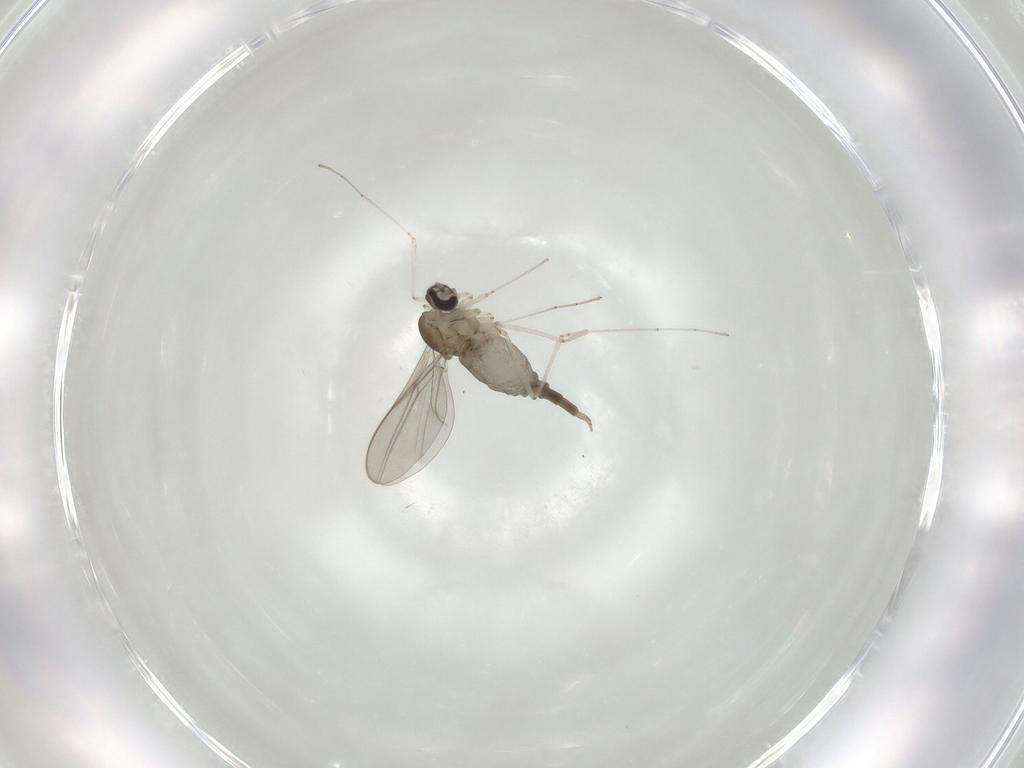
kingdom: Animalia
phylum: Arthropoda
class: Insecta
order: Diptera
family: Cecidomyiidae
